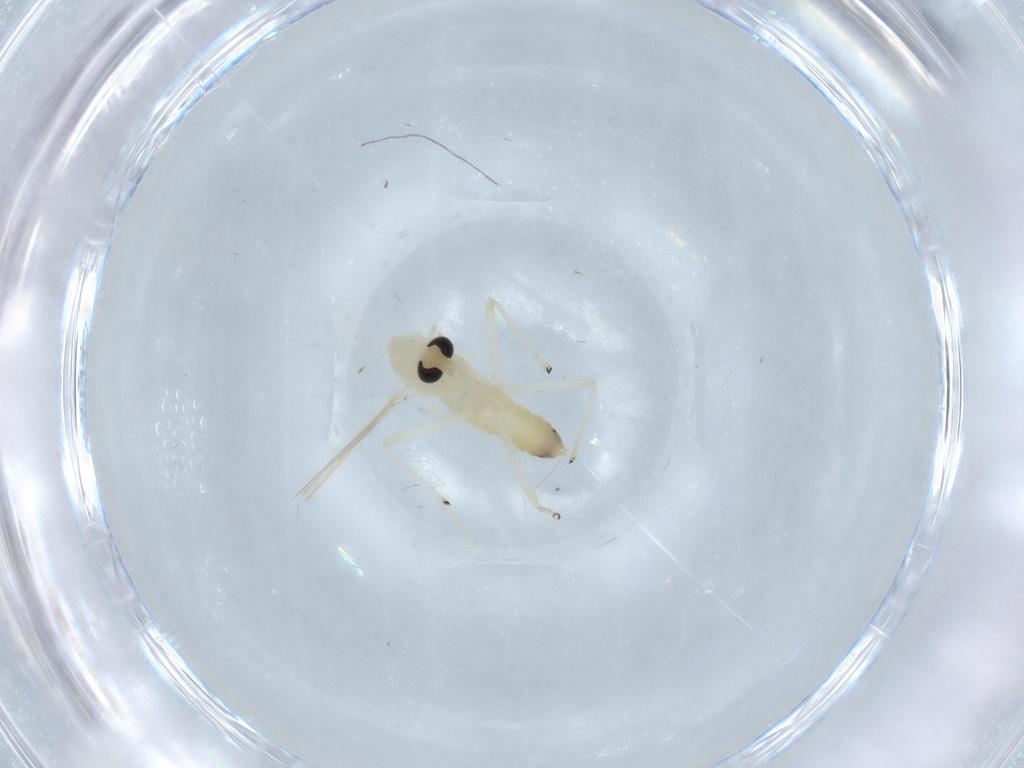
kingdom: Animalia
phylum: Arthropoda
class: Insecta
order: Diptera
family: Chironomidae
